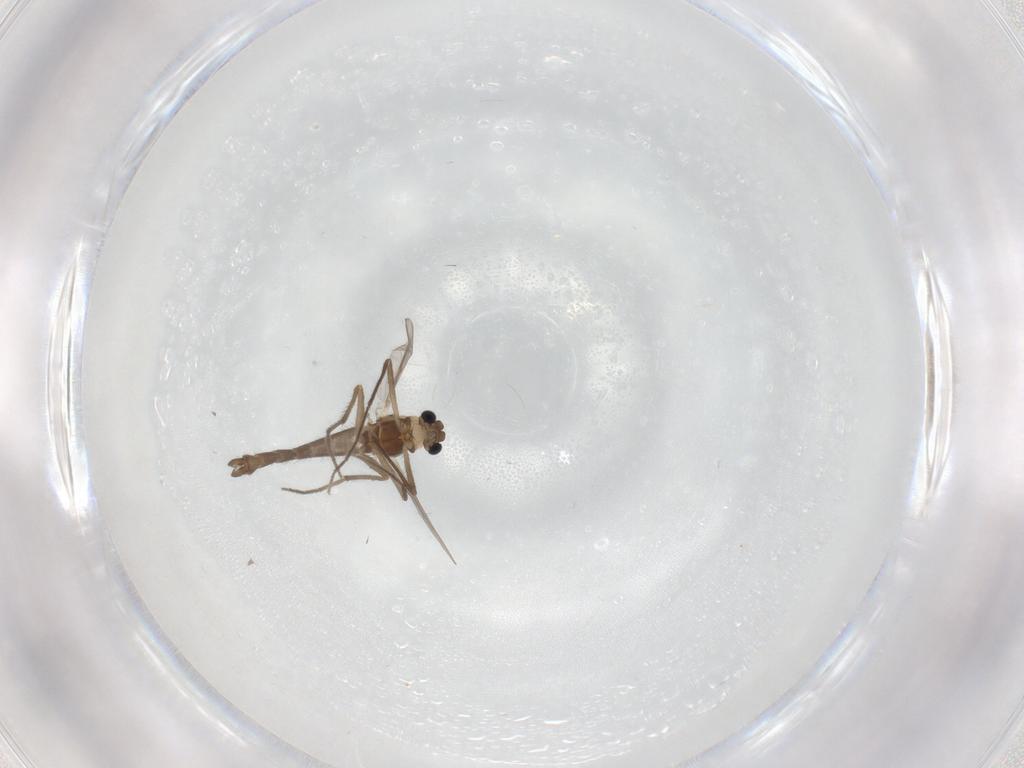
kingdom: Animalia
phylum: Arthropoda
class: Insecta
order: Diptera
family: Chironomidae
